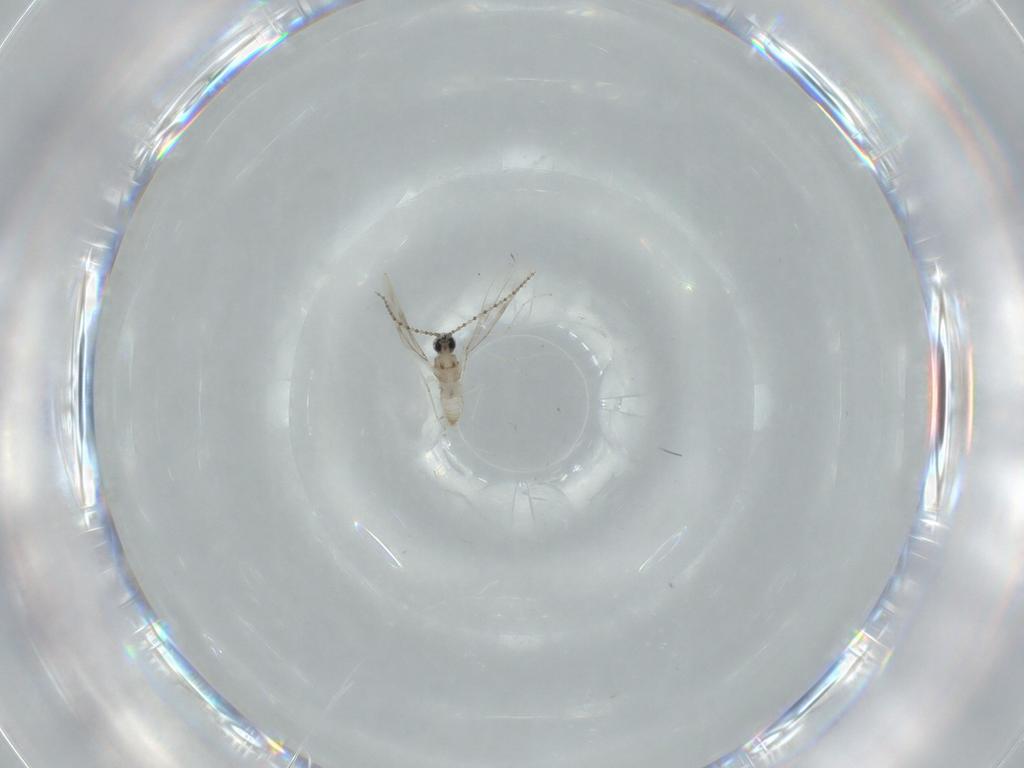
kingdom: Animalia
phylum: Arthropoda
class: Insecta
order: Diptera
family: Cecidomyiidae
